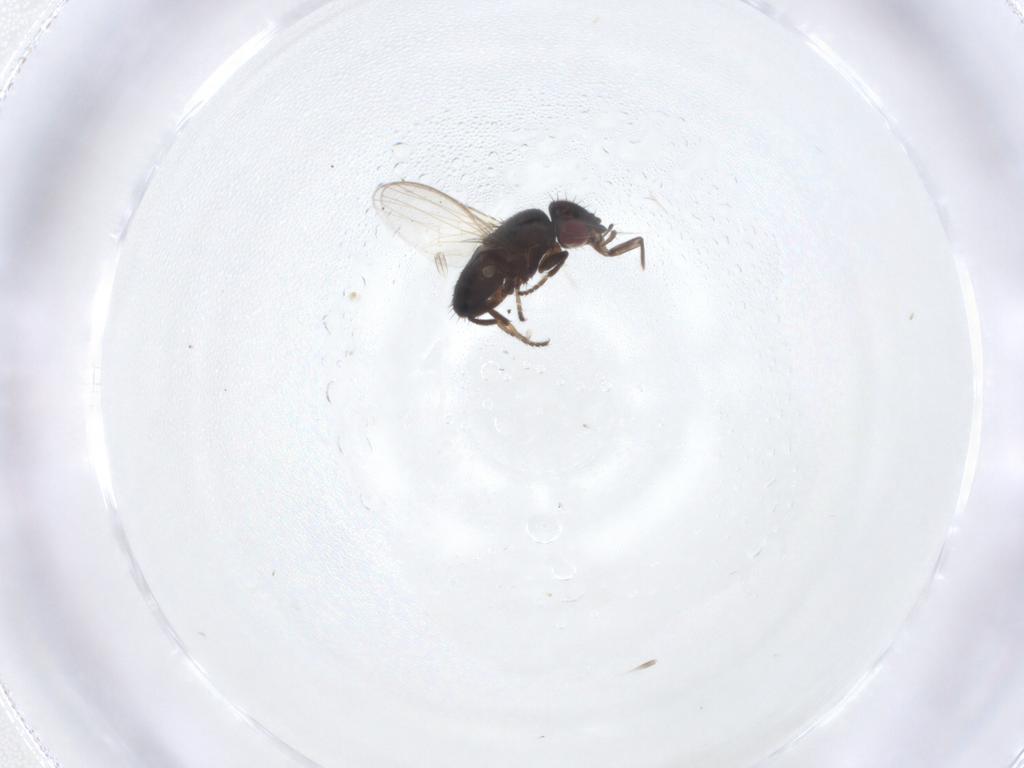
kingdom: Animalia
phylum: Arthropoda
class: Insecta
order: Diptera
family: Milichiidae
